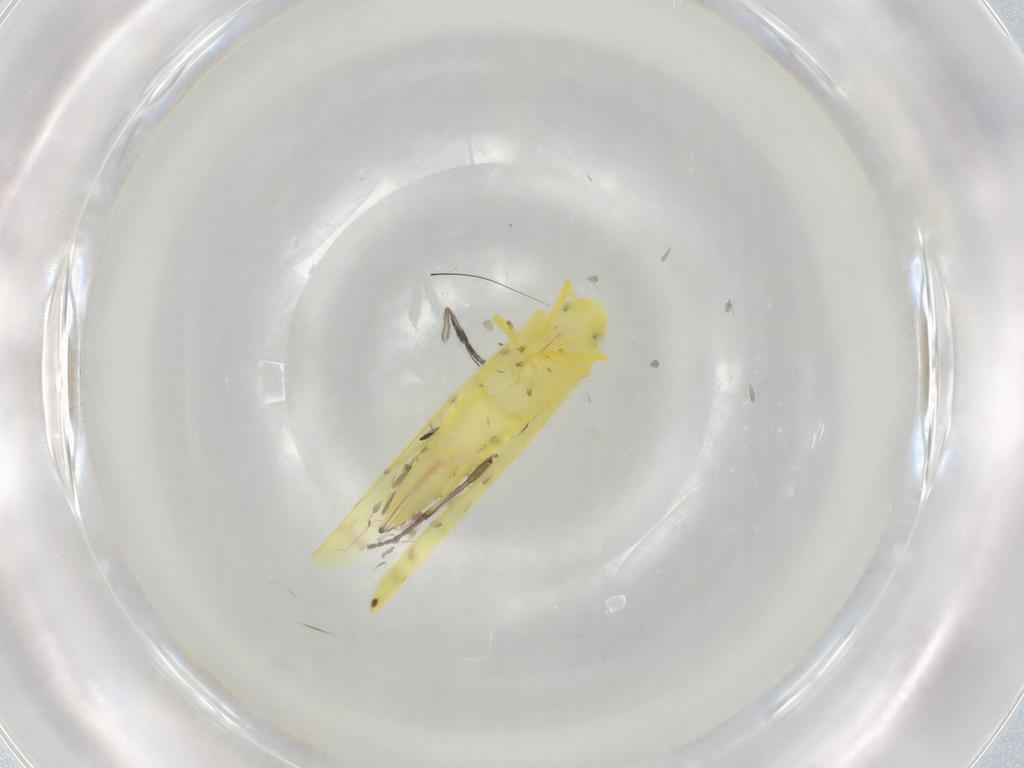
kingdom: Animalia
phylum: Arthropoda
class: Insecta
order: Hemiptera
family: Cicadellidae
